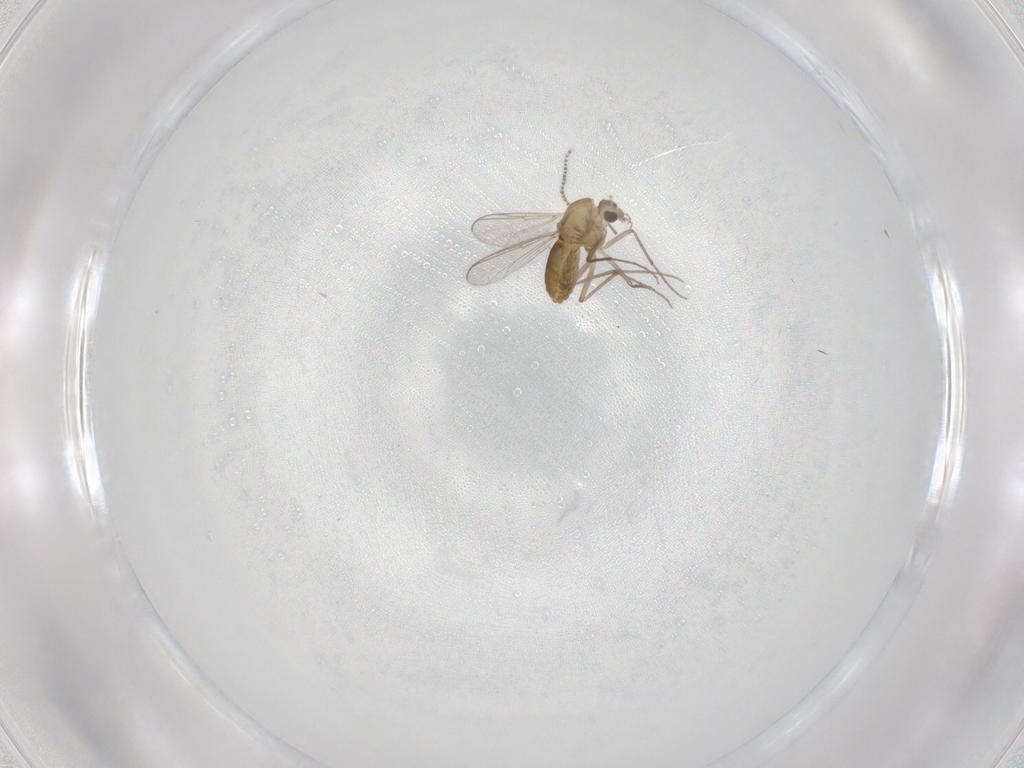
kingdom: Animalia
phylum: Arthropoda
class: Insecta
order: Diptera
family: Chironomidae
